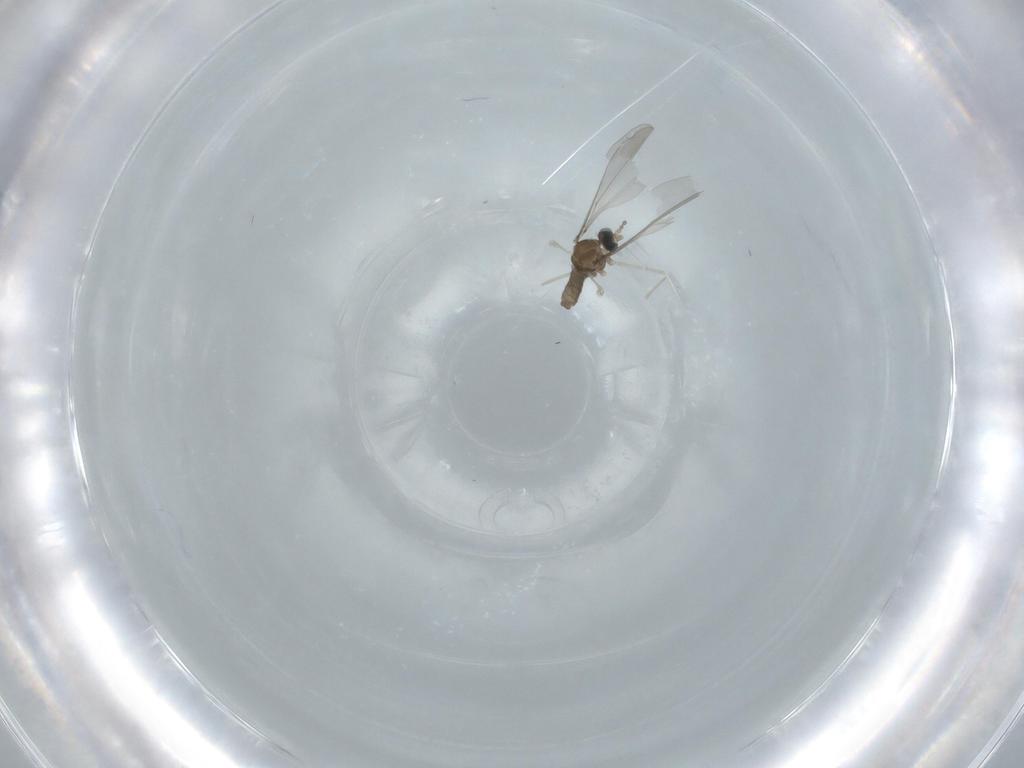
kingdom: Animalia
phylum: Arthropoda
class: Insecta
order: Diptera
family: Cecidomyiidae
